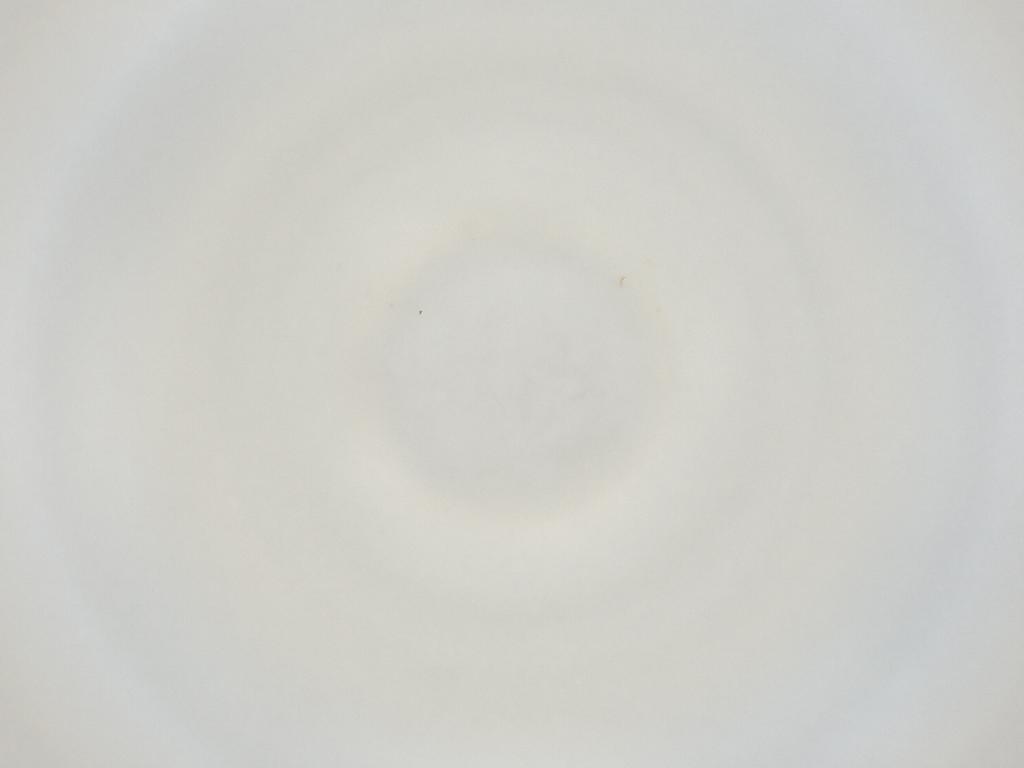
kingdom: Animalia
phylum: Arthropoda
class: Insecta
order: Diptera
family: Cecidomyiidae
